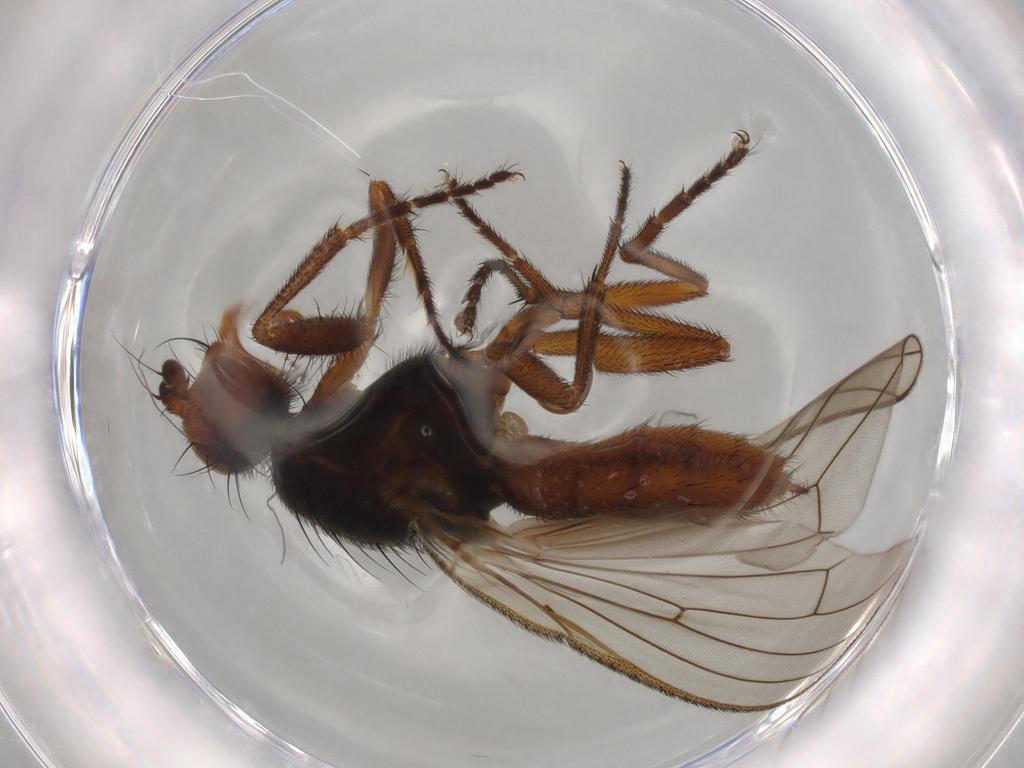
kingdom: Animalia
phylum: Arthropoda
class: Insecta
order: Diptera
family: Heleomyzidae
